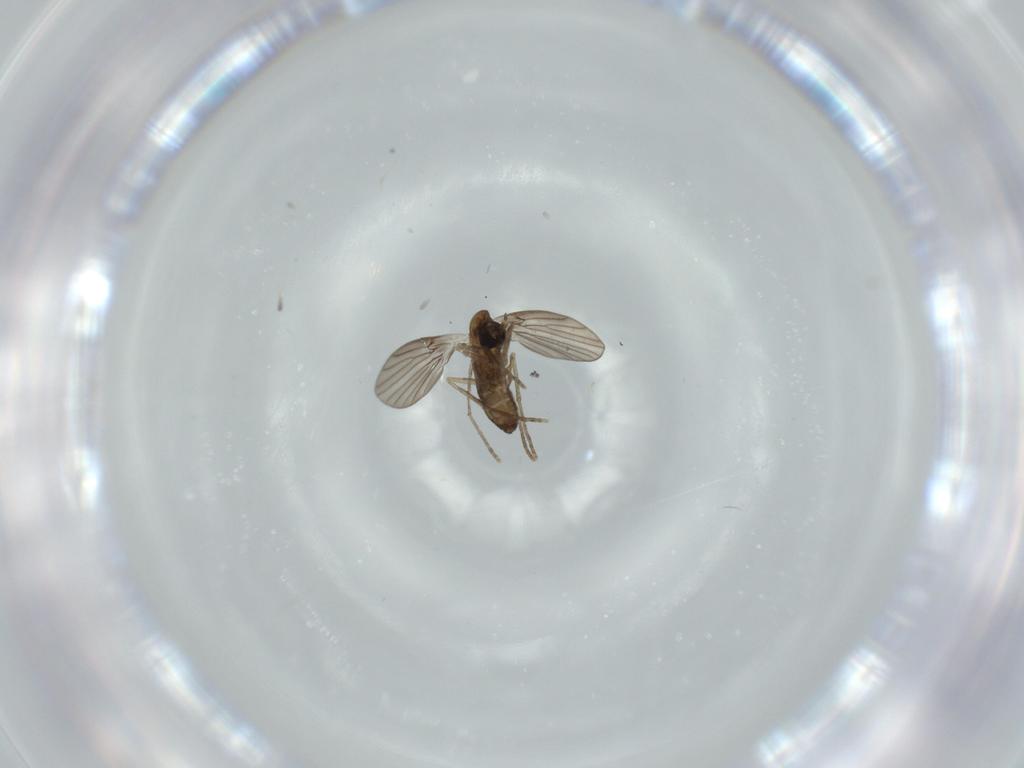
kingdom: Animalia
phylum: Arthropoda
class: Insecta
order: Diptera
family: Psychodidae
